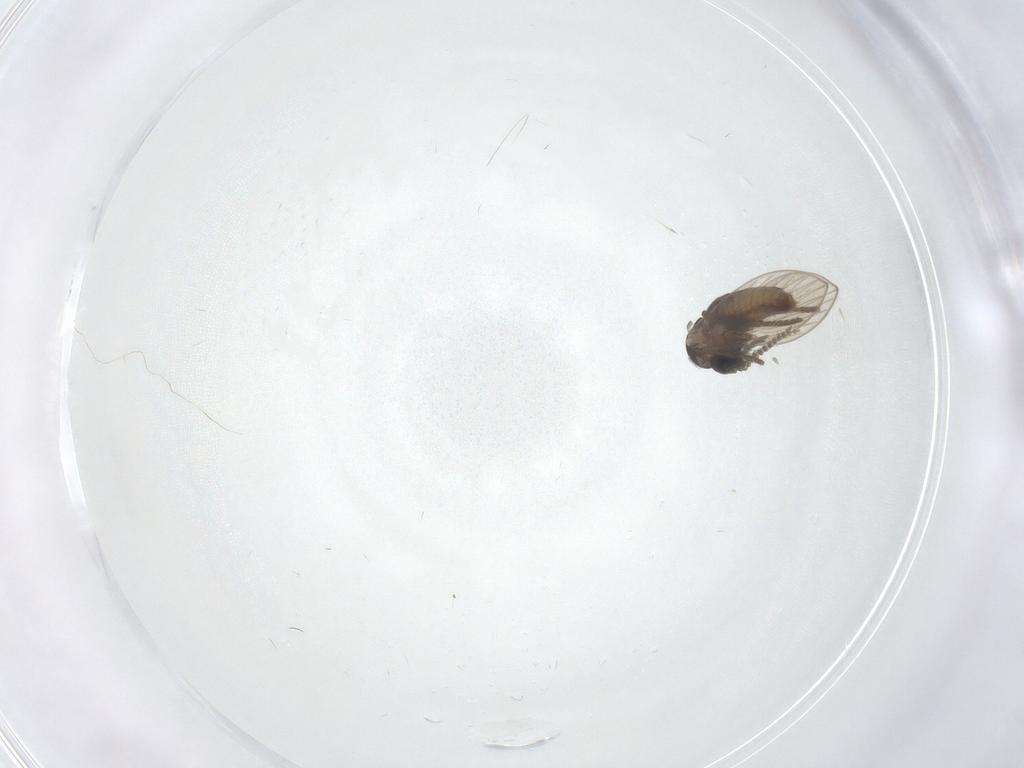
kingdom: Animalia
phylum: Arthropoda
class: Insecta
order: Diptera
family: Psychodidae
